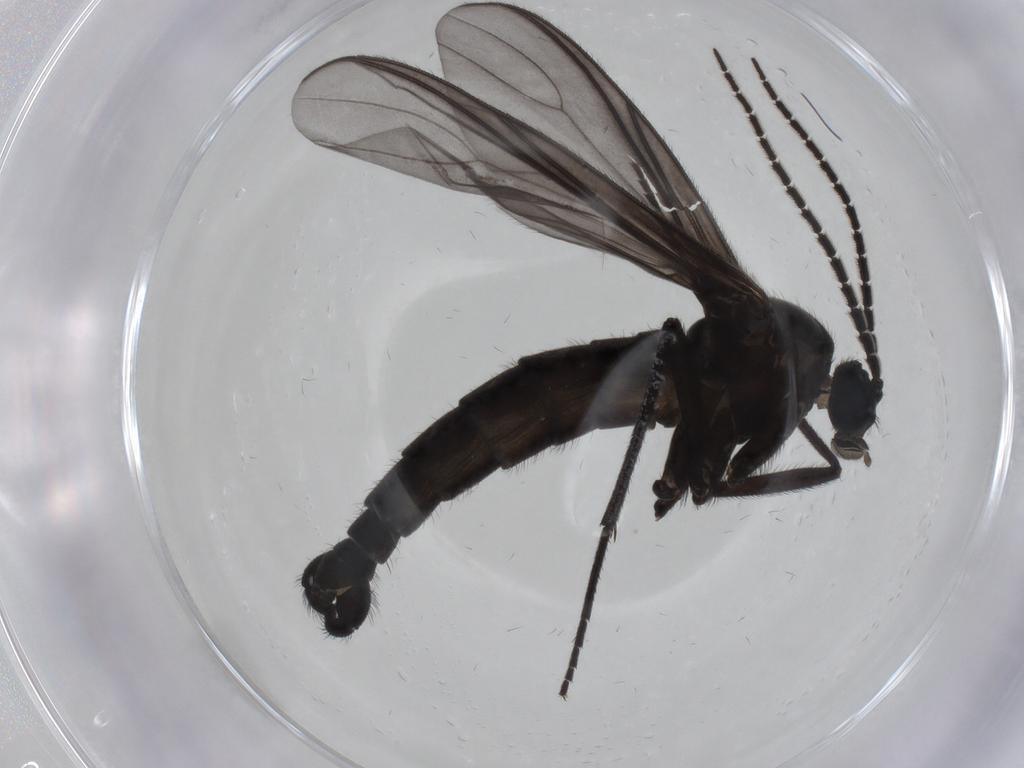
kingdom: Animalia
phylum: Arthropoda
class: Insecta
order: Diptera
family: Sciaridae
